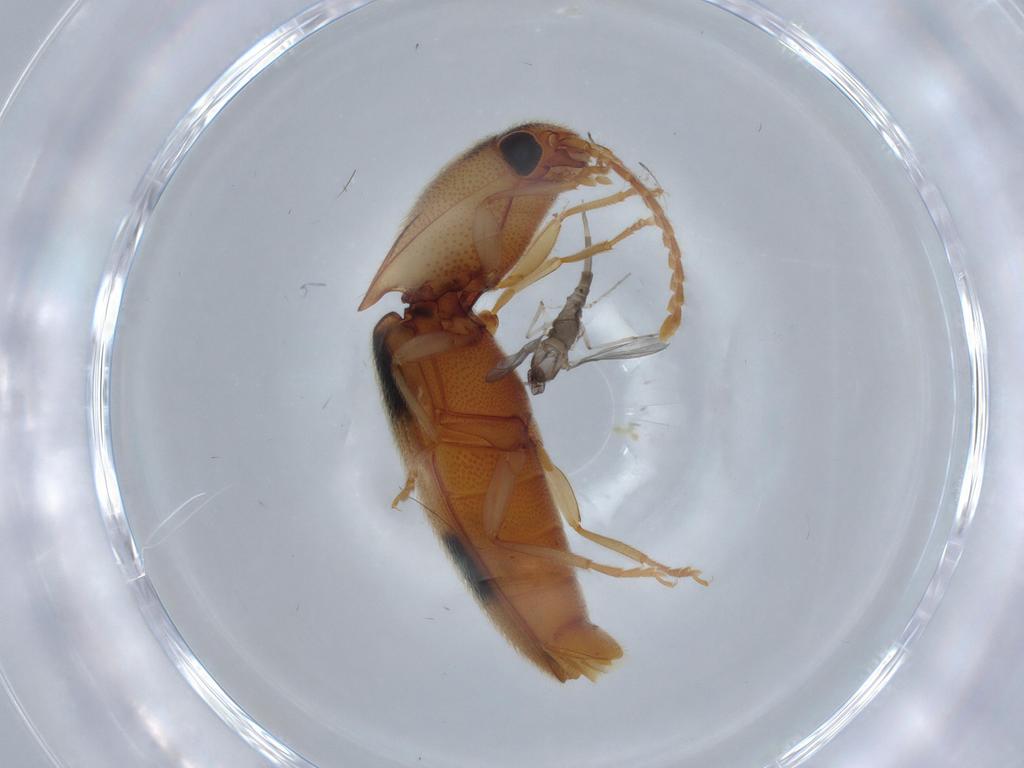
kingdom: Animalia
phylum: Arthropoda
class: Insecta
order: Coleoptera
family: Elateridae
